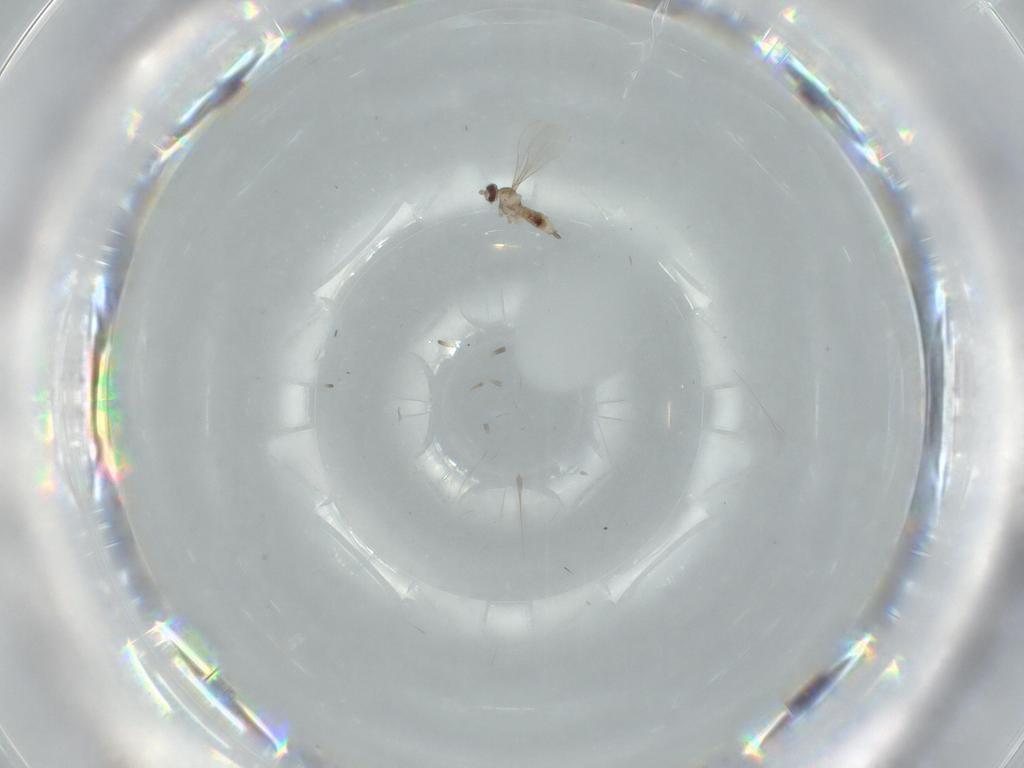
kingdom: Animalia
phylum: Arthropoda
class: Insecta
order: Diptera
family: Cecidomyiidae
